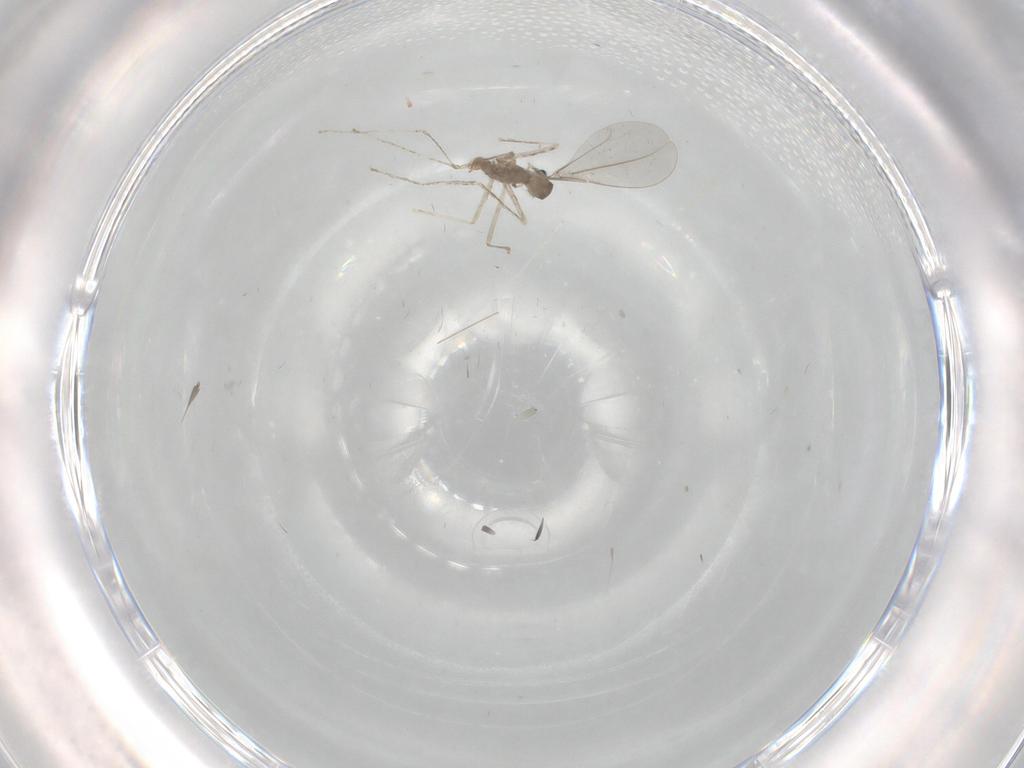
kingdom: Animalia
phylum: Arthropoda
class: Insecta
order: Diptera
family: Cecidomyiidae
